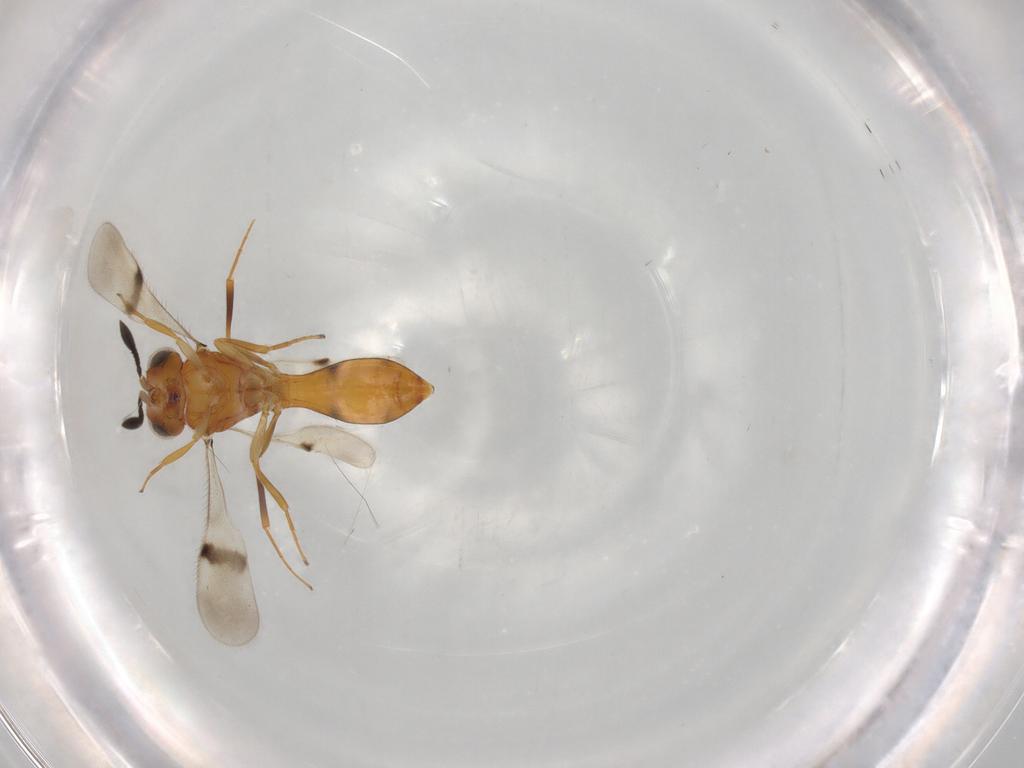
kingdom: Animalia
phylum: Arthropoda
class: Insecta
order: Hymenoptera
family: Scelionidae
